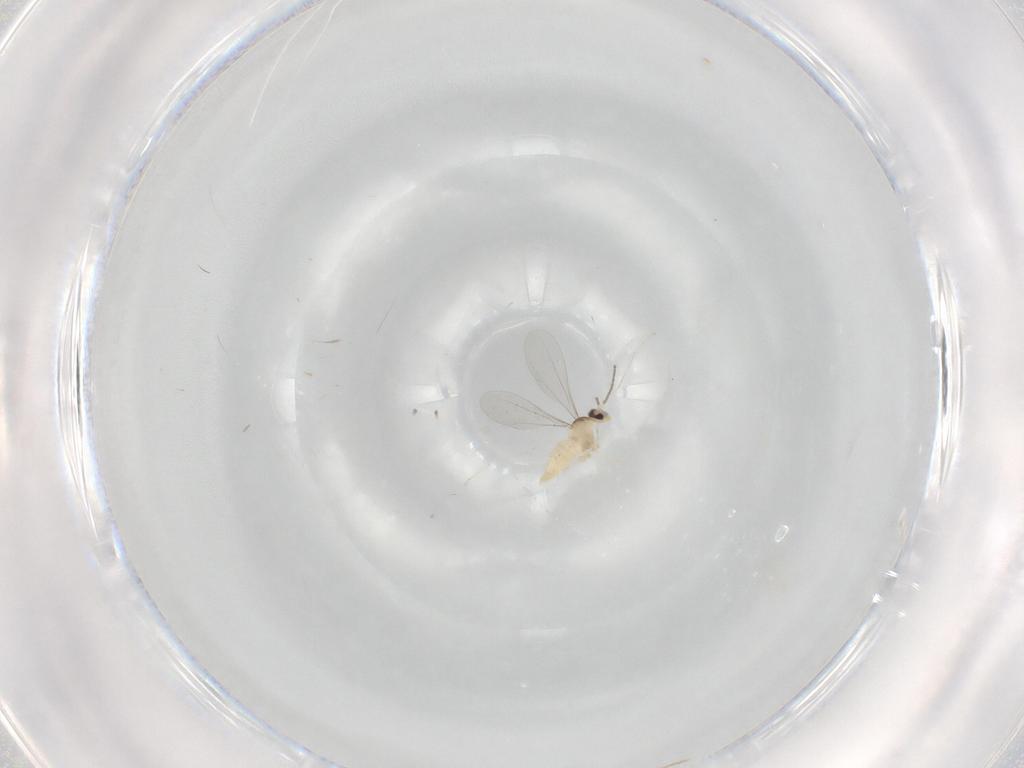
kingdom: Animalia
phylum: Arthropoda
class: Insecta
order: Diptera
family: Cecidomyiidae
